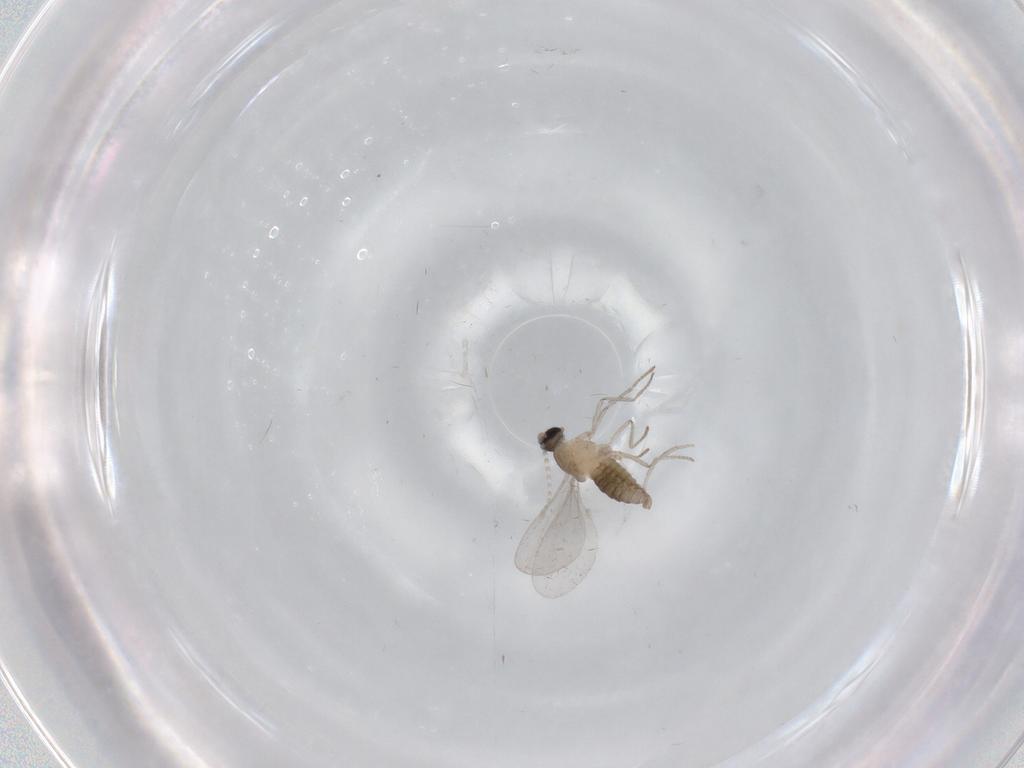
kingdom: Animalia
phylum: Arthropoda
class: Insecta
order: Diptera
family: Cecidomyiidae
